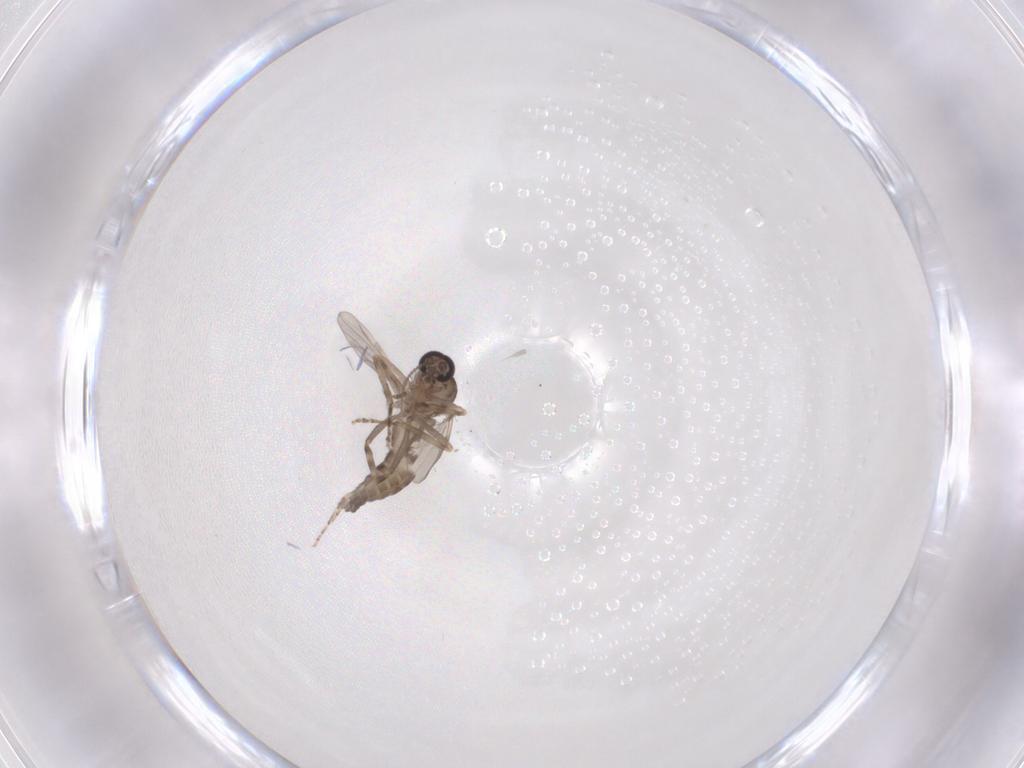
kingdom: Animalia
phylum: Arthropoda
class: Insecta
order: Diptera
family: Ceratopogonidae
